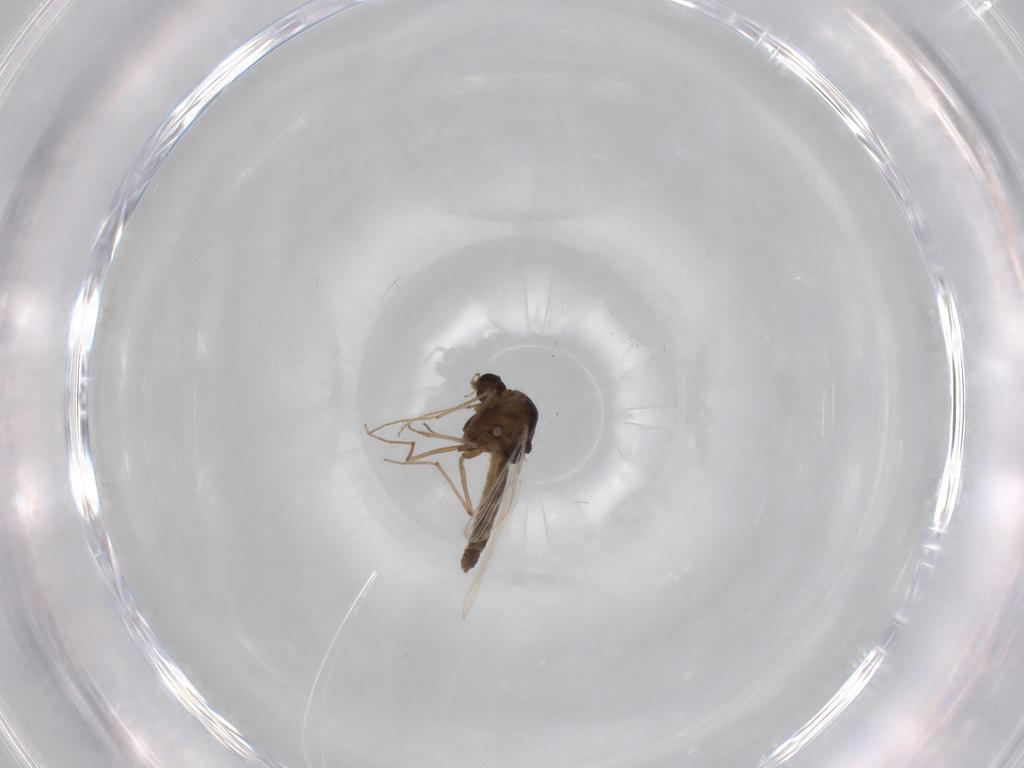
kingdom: Animalia
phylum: Arthropoda
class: Insecta
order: Diptera
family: Chironomidae
